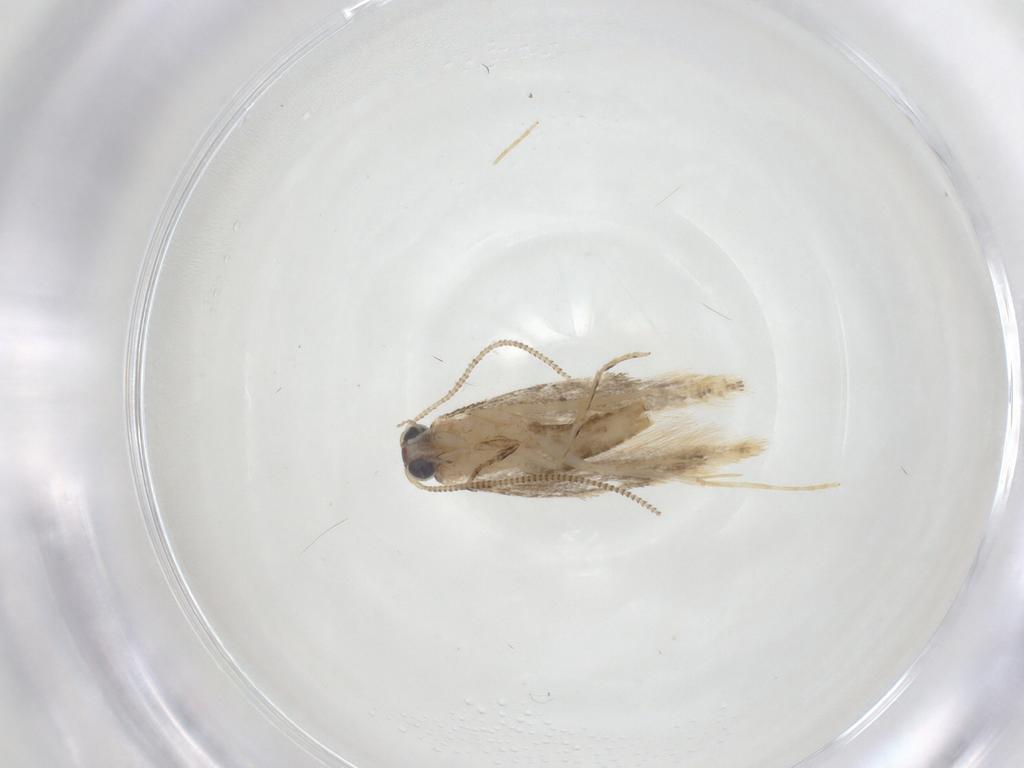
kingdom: Animalia
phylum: Arthropoda
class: Insecta
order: Lepidoptera
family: Tineidae
